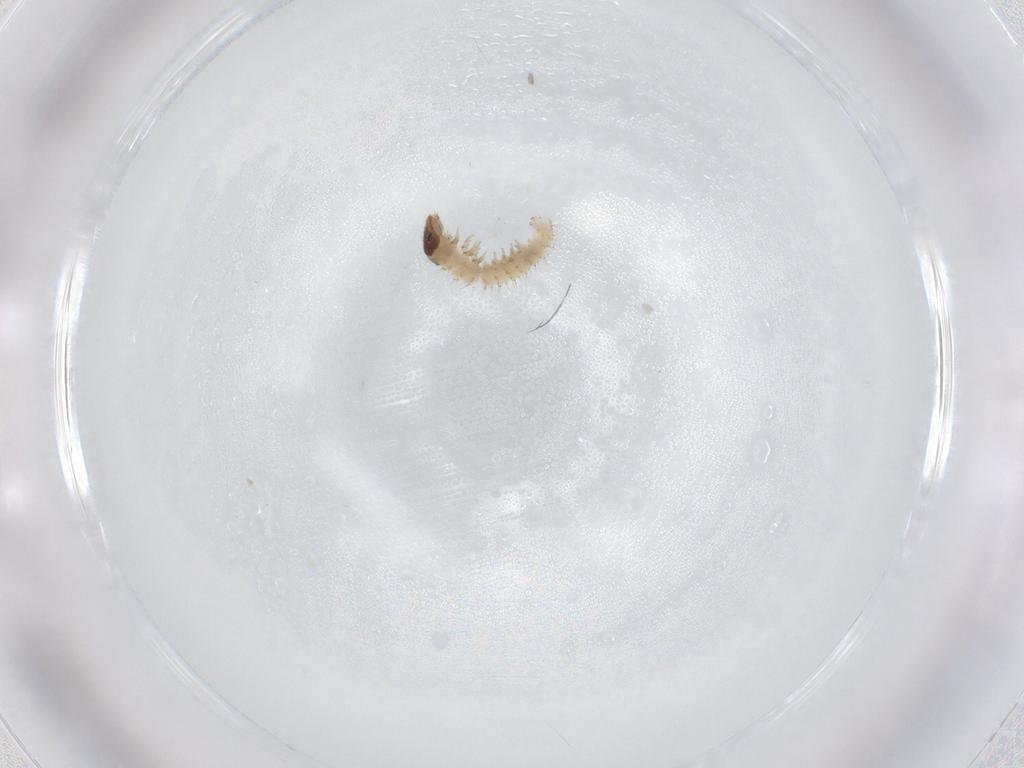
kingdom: Animalia
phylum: Arthropoda
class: Insecta
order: Lepidoptera
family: Crambidae
